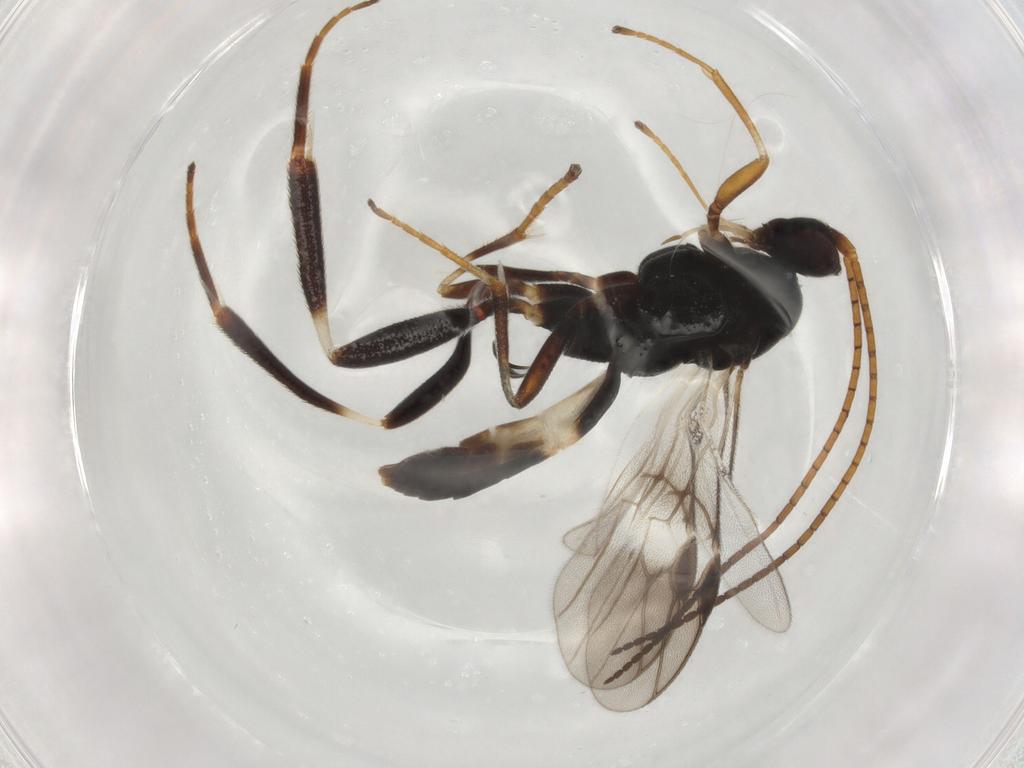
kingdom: Animalia
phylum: Arthropoda
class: Insecta
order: Hymenoptera
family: Braconidae
